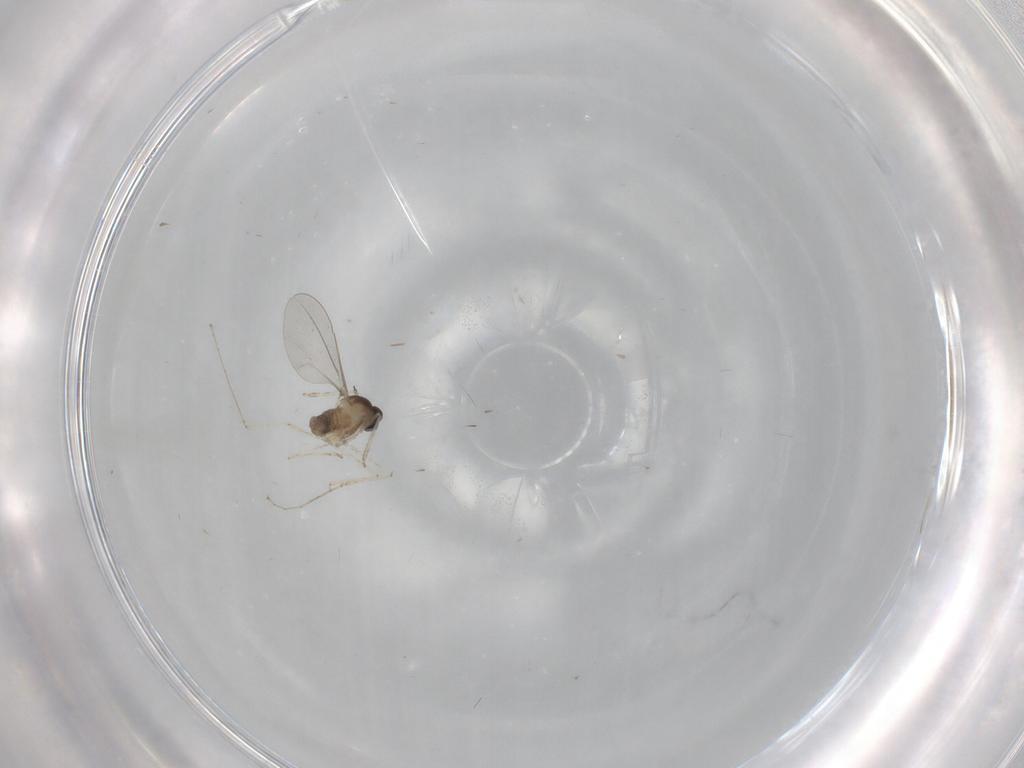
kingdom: Animalia
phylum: Arthropoda
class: Insecta
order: Diptera
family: Cecidomyiidae
